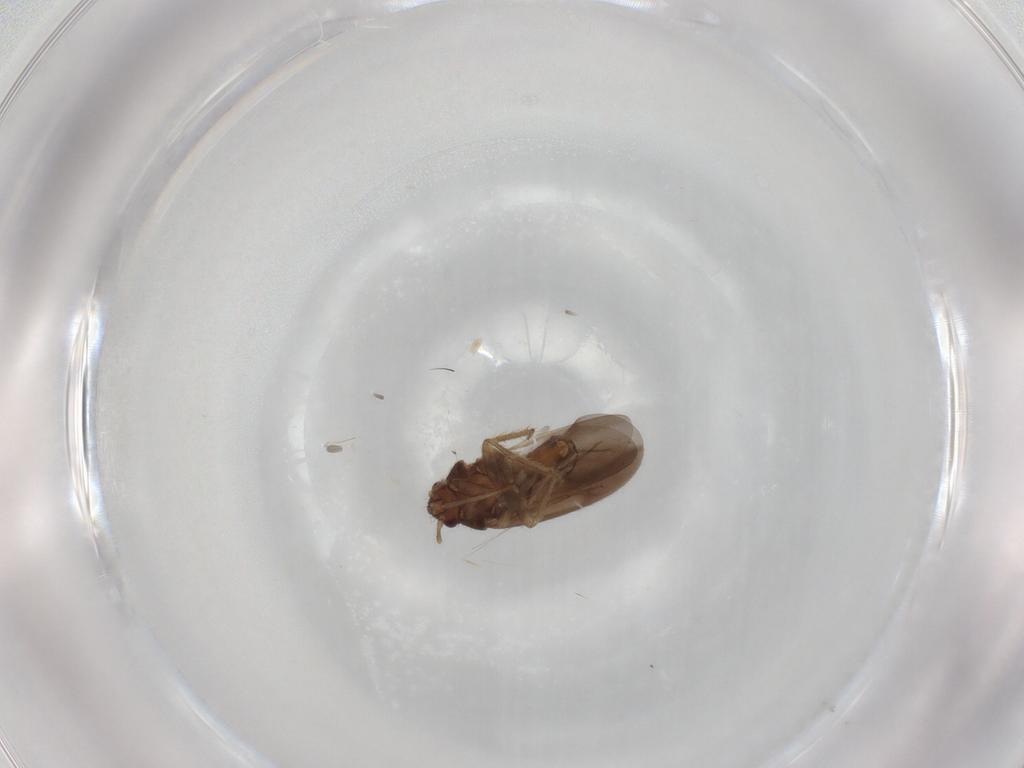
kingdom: Animalia
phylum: Arthropoda
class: Insecta
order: Hemiptera
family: Ceratocombidae
